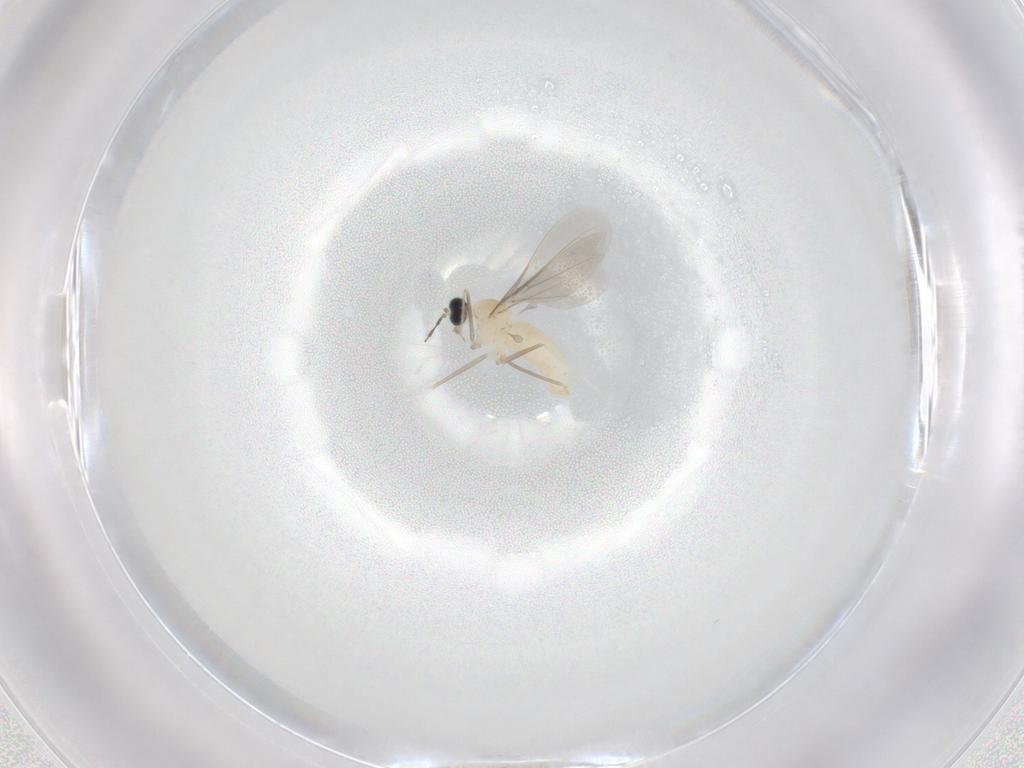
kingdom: Animalia
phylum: Arthropoda
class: Insecta
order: Diptera
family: Cecidomyiidae
